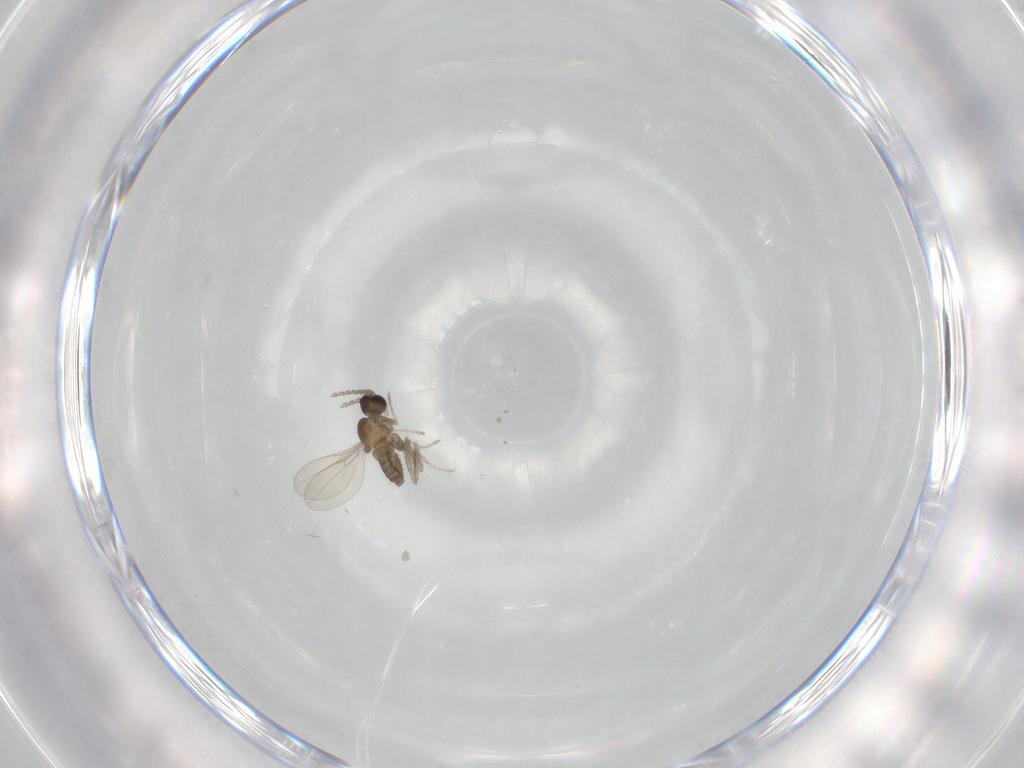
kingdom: Animalia
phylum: Arthropoda
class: Insecta
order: Diptera
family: Cecidomyiidae
